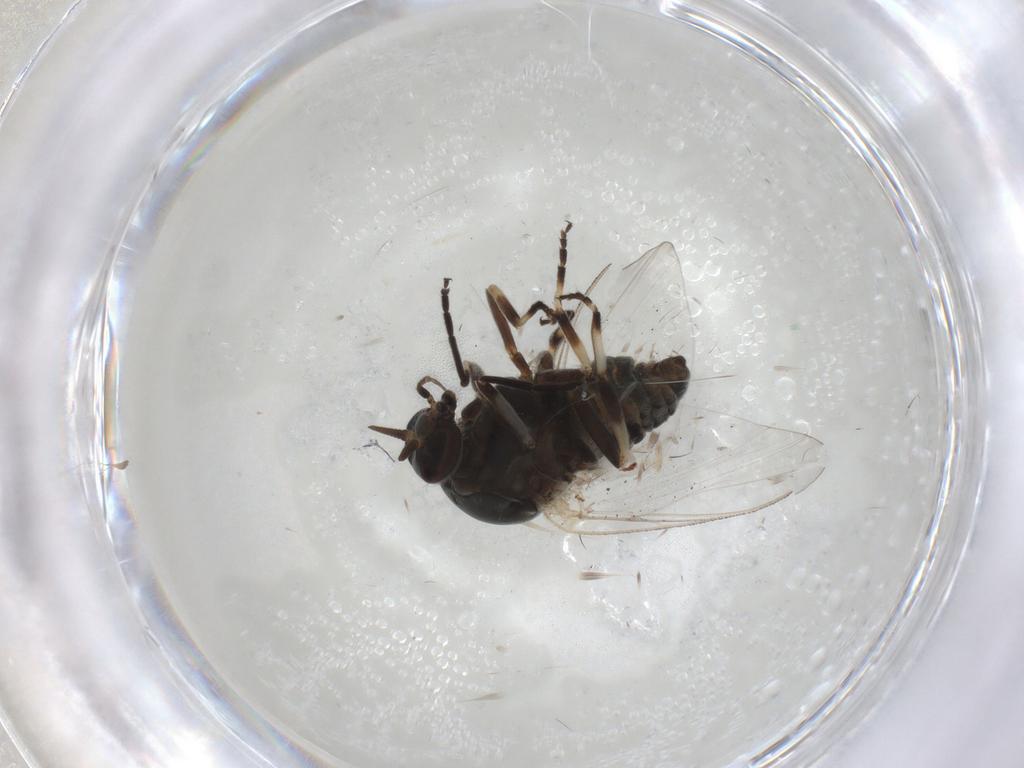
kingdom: Animalia
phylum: Arthropoda
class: Insecta
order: Diptera
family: Simuliidae
